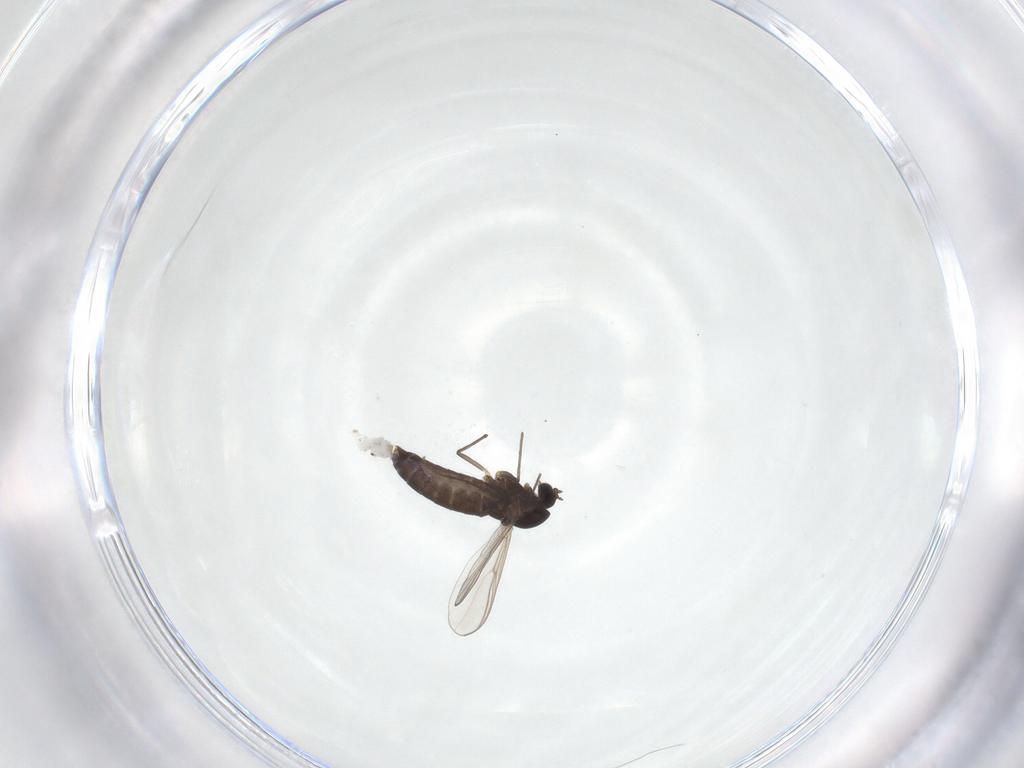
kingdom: Animalia
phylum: Arthropoda
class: Insecta
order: Diptera
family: Chironomidae
